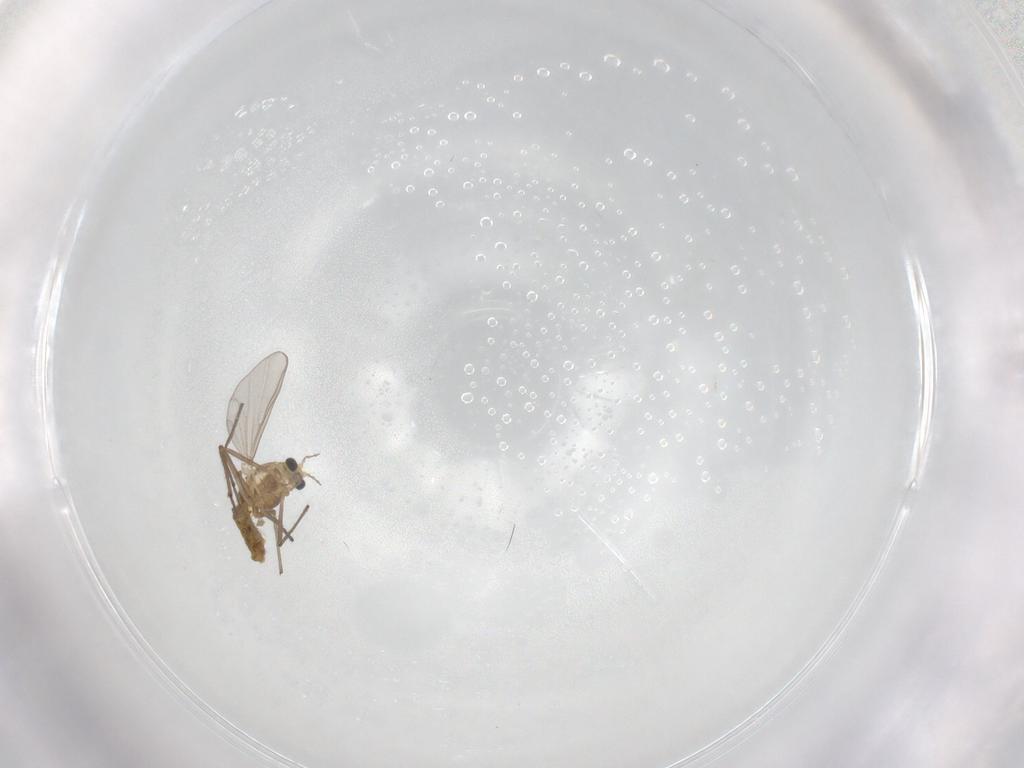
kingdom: Animalia
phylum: Arthropoda
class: Insecta
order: Diptera
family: Chironomidae
